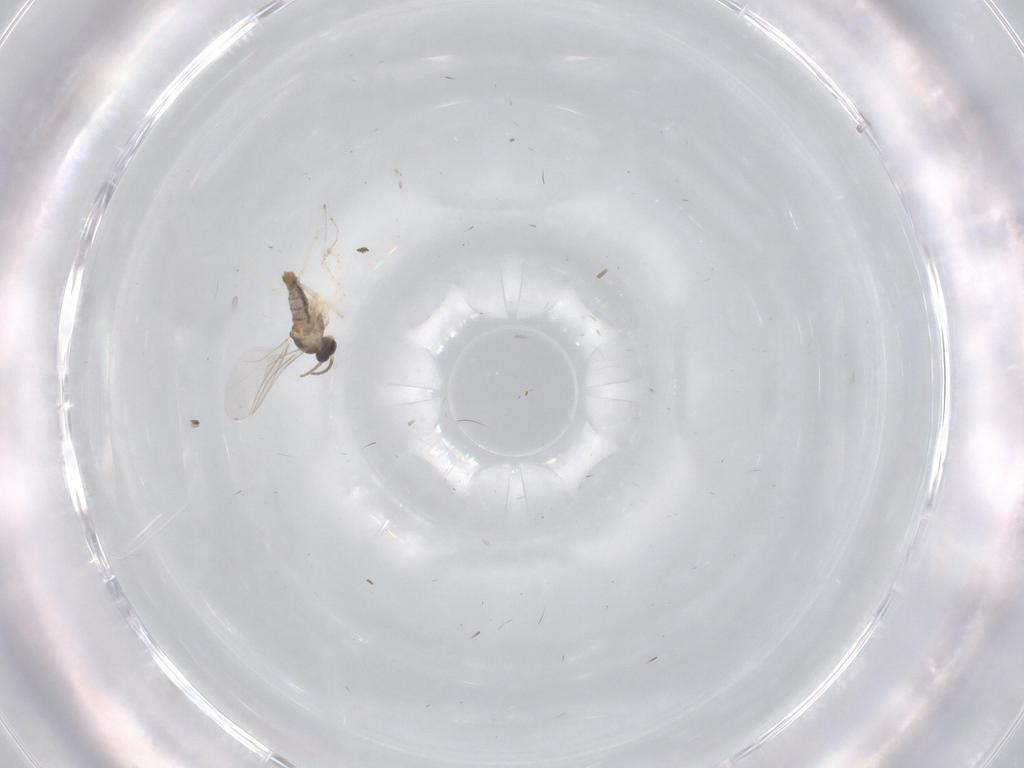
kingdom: Animalia
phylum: Arthropoda
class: Insecta
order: Diptera
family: Cecidomyiidae
